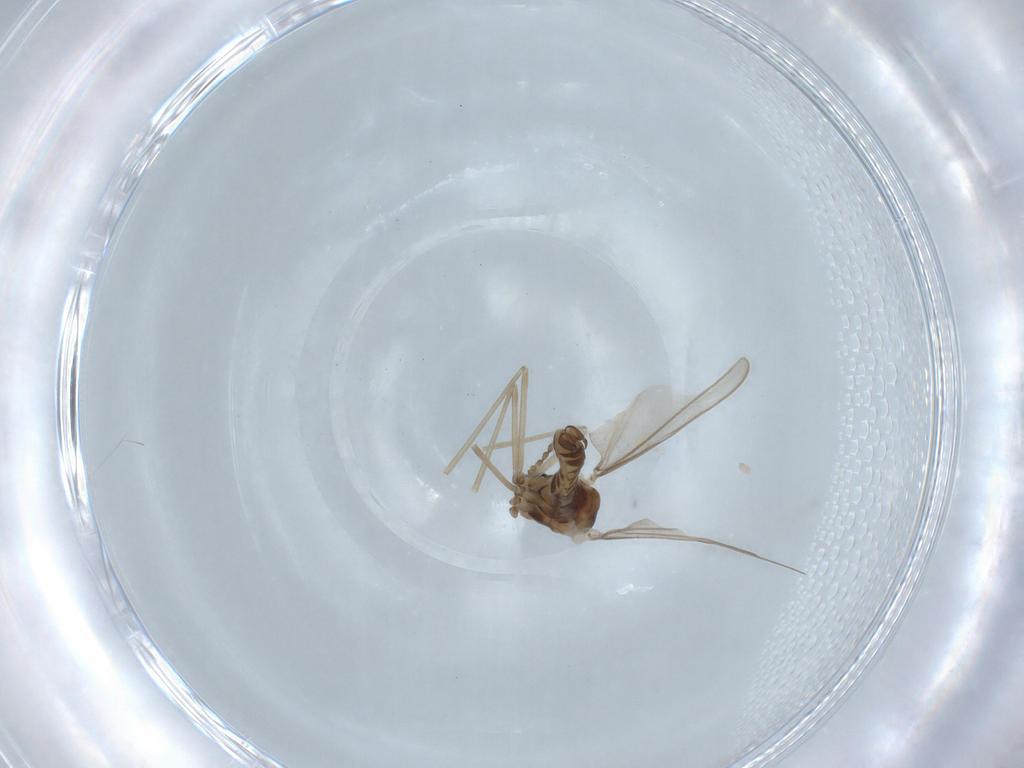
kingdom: Animalia
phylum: Arthropoda
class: Insecta
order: Diptera
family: Cecidomyiidae
